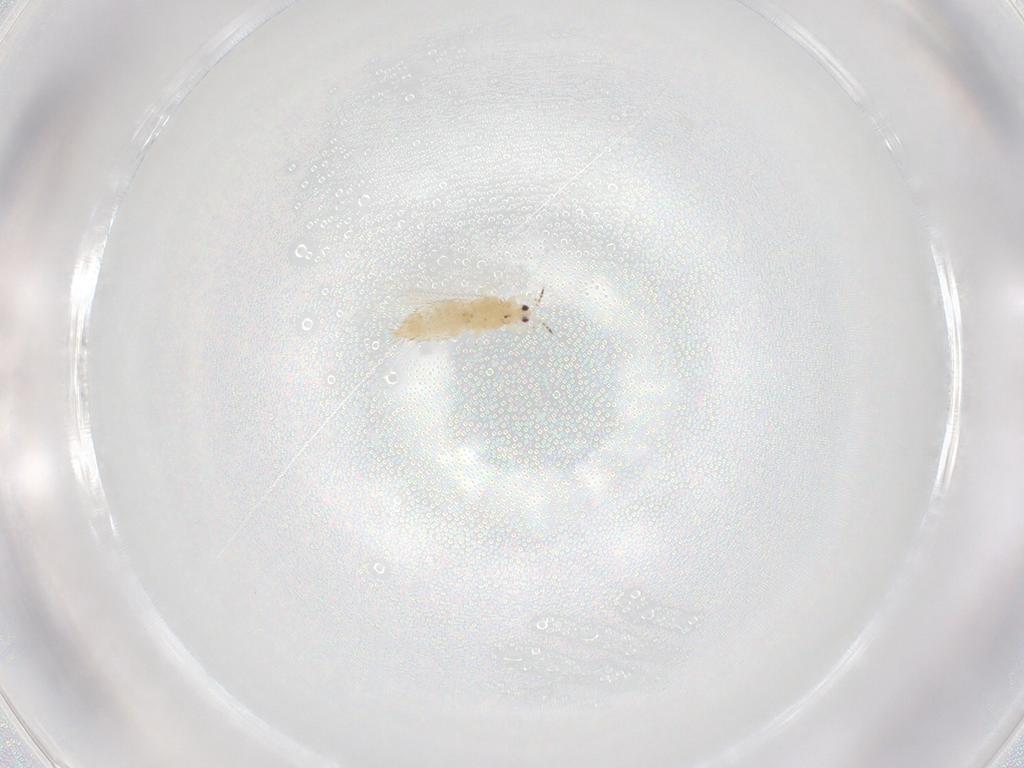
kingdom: Animalia
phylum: Arthropoda
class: Insecta
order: Thysanoptera
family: Thripidae
